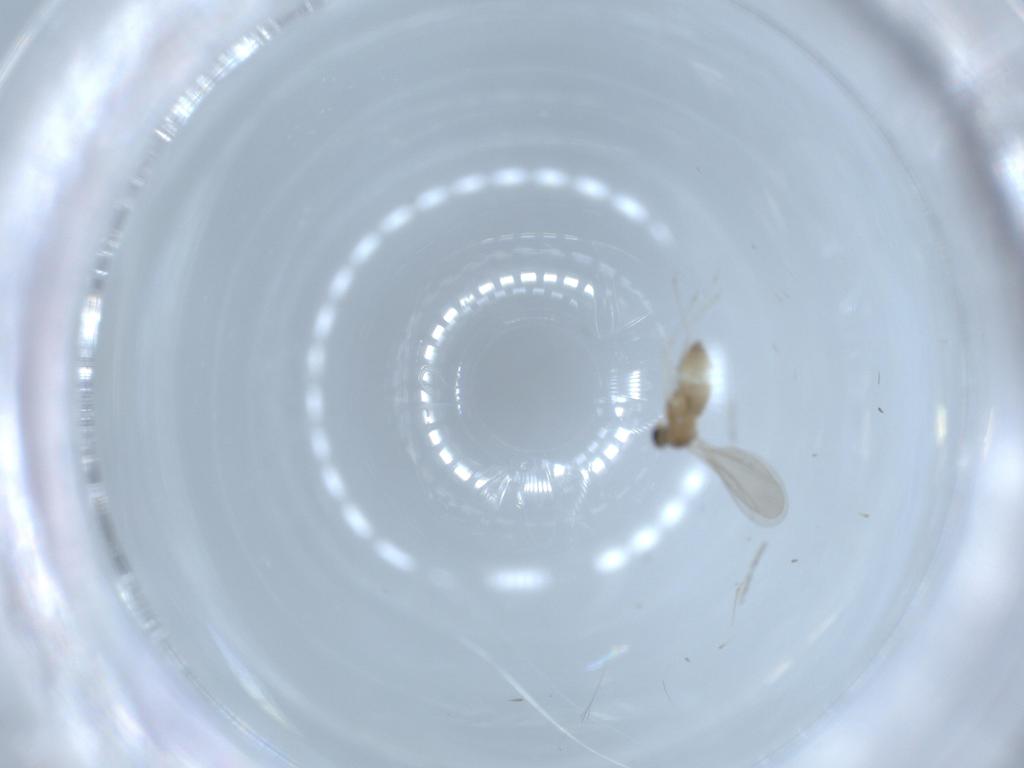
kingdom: Animalia
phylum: Arthropoda
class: Insecta
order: Diptera
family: Cecidomyiidae
